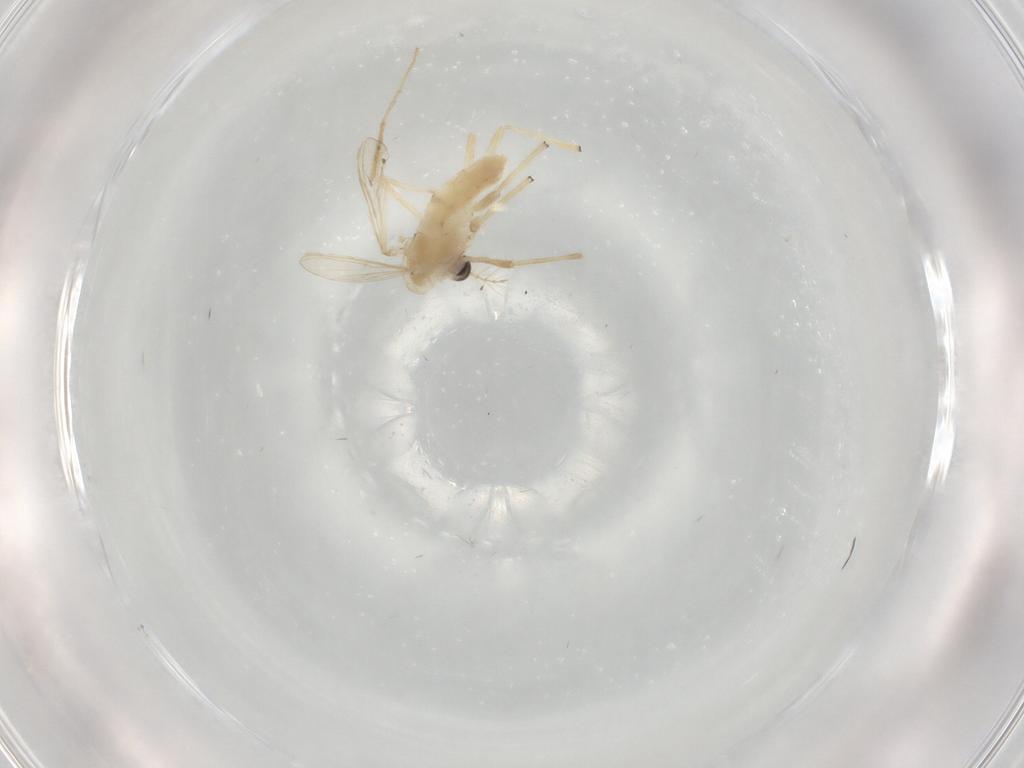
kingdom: Animalia
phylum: Arthropoda
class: Insecta
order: Diptera
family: Chironomidae
